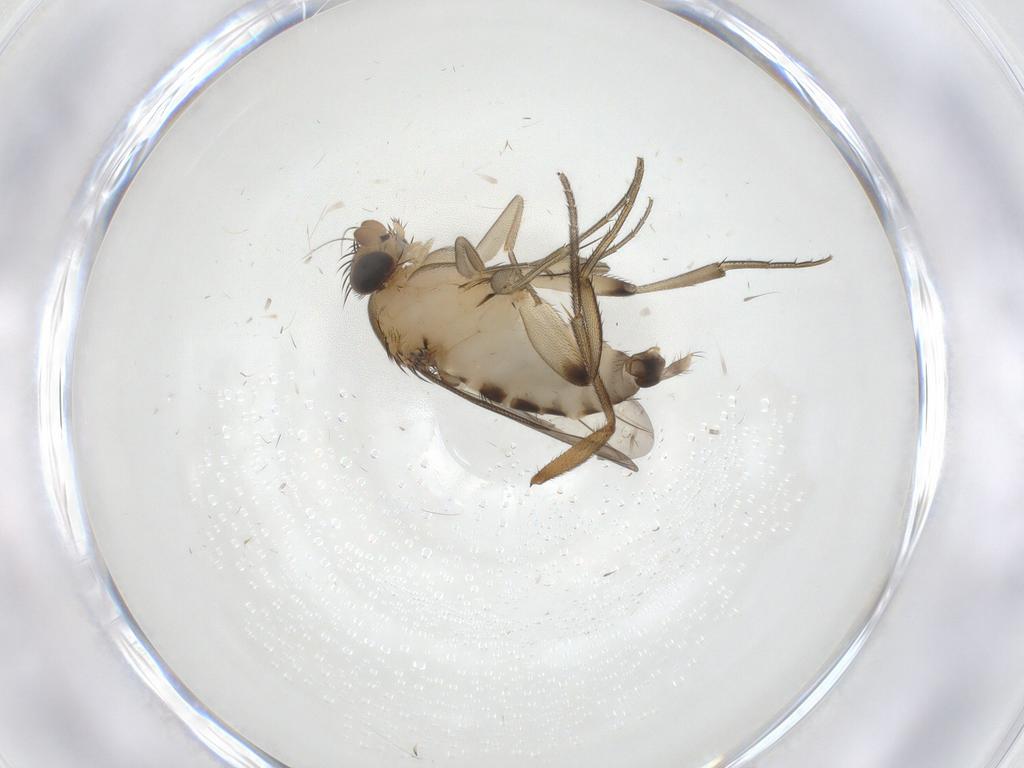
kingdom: Animalia
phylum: Arthropoda
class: Insecta
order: Diptera
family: Phoridae
